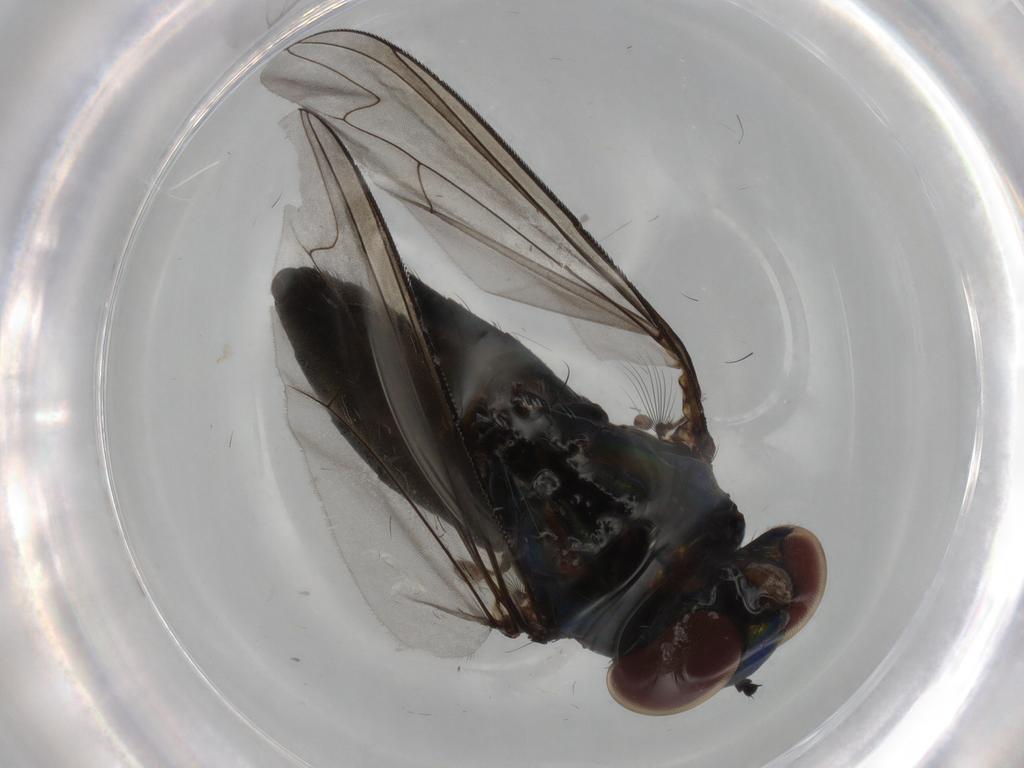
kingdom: Animalia
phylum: Arthropoda
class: Insecta
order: Diptera
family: Dolichopodidae
